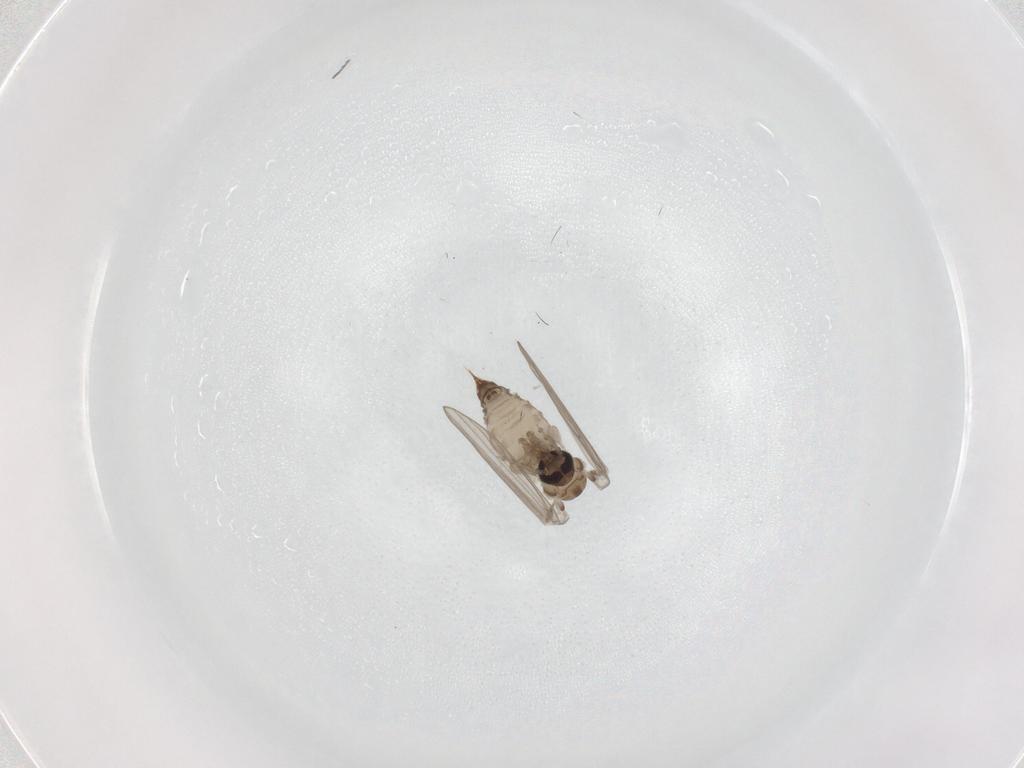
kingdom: Animalia
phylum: Arthropoda
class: Insecta
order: Diptera
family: Psychodidae
